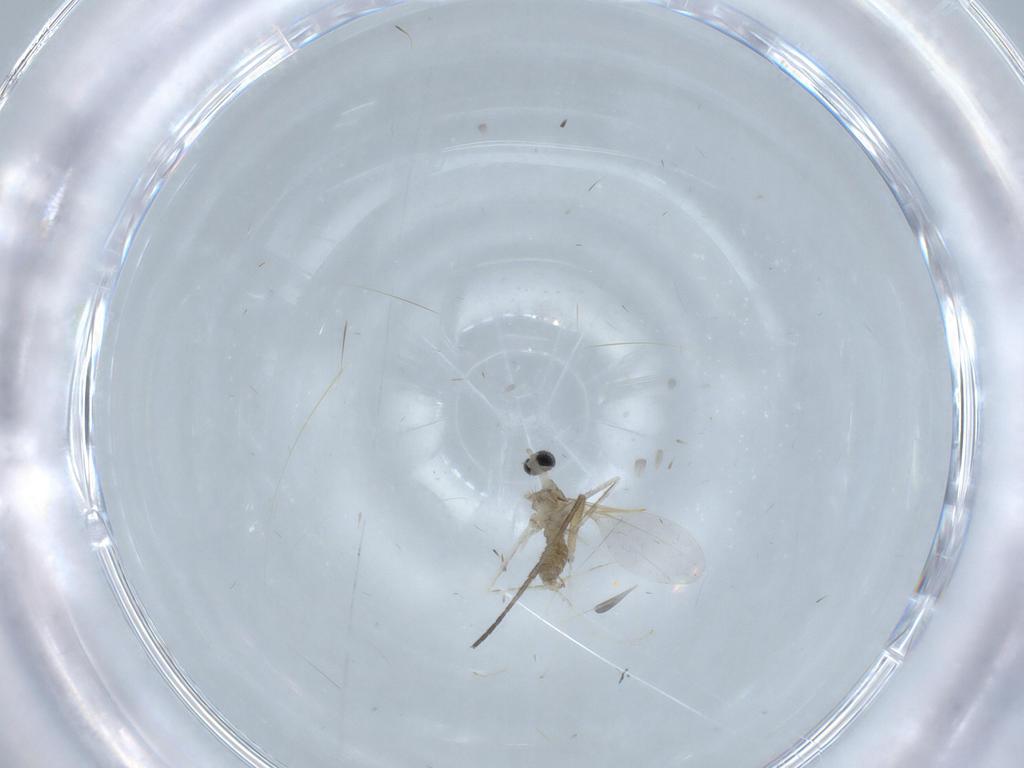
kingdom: Animalia
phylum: Arthropoda
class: Insecta
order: Diptera
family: Cecidomyiidae
